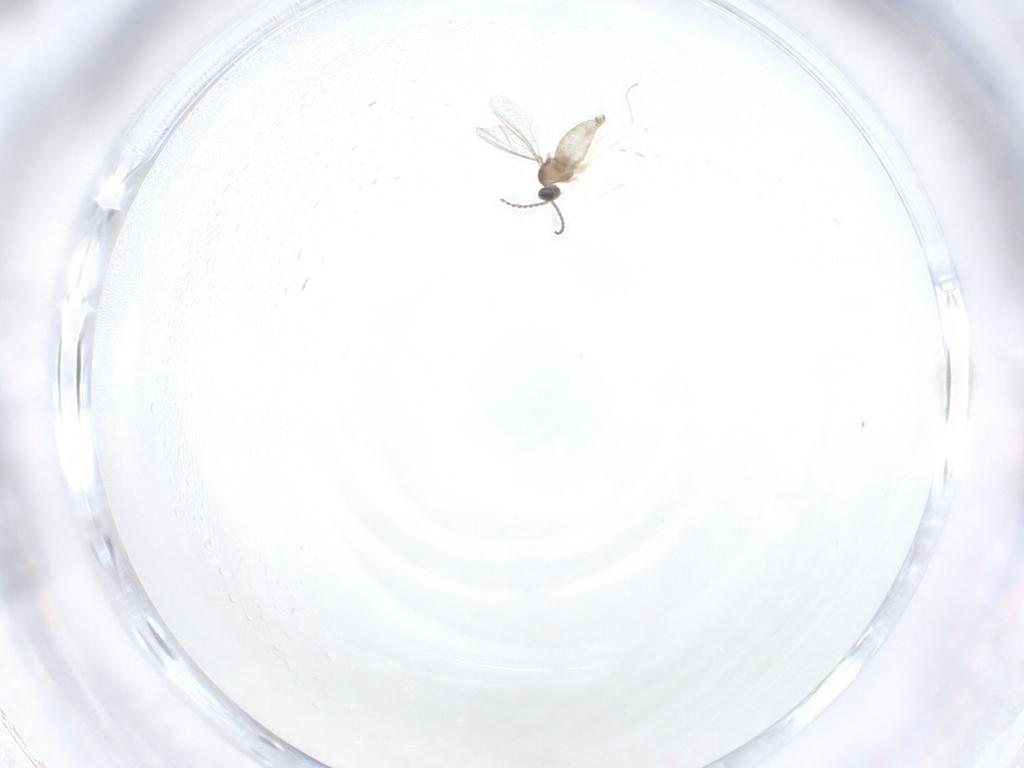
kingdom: Animalia
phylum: Arthropoda
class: Insecta
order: Diptera
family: Cecidomyiidae
